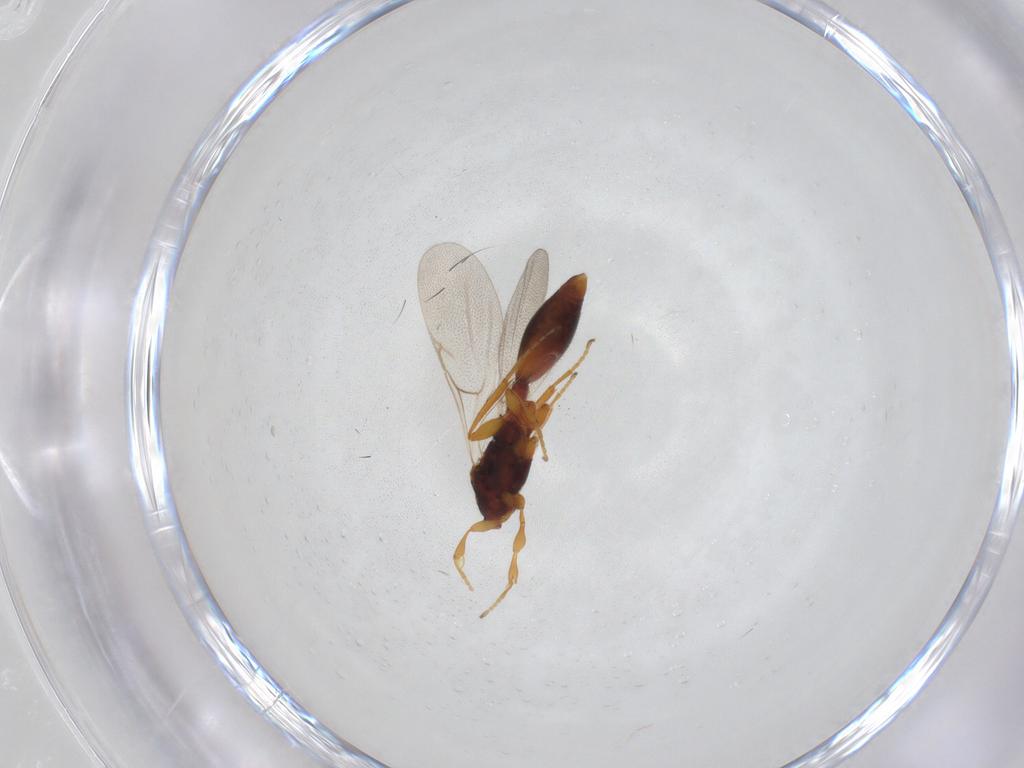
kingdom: Animalia
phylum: Arthropoda
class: Insecta
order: Hymenoptera
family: Diapriidae
